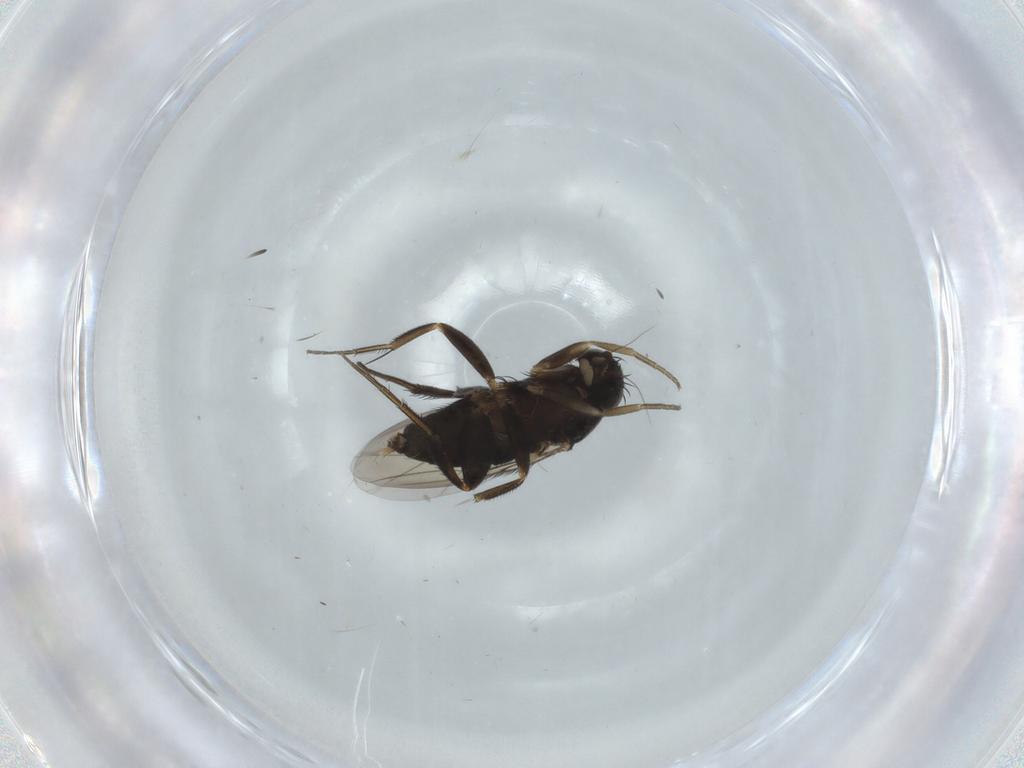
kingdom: Animalia
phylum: Arthropoda
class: Insecta
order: Diptera
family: Phoridae
